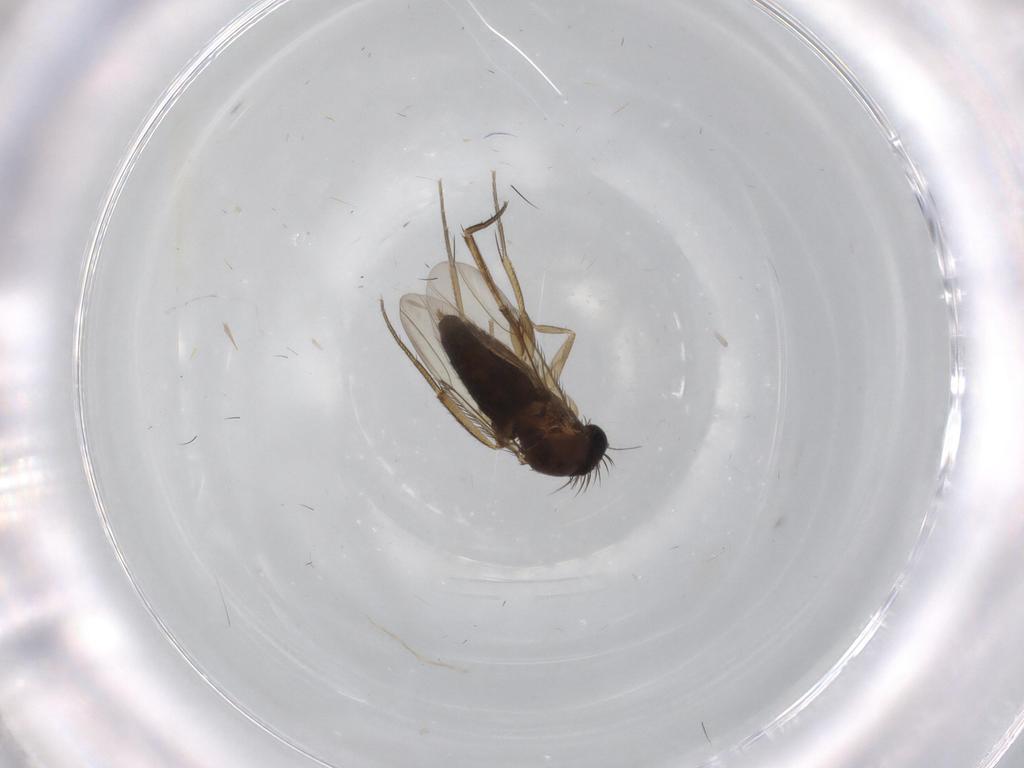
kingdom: Animalia
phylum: Arthropoda
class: Insecta
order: Diptera
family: Phoridae
